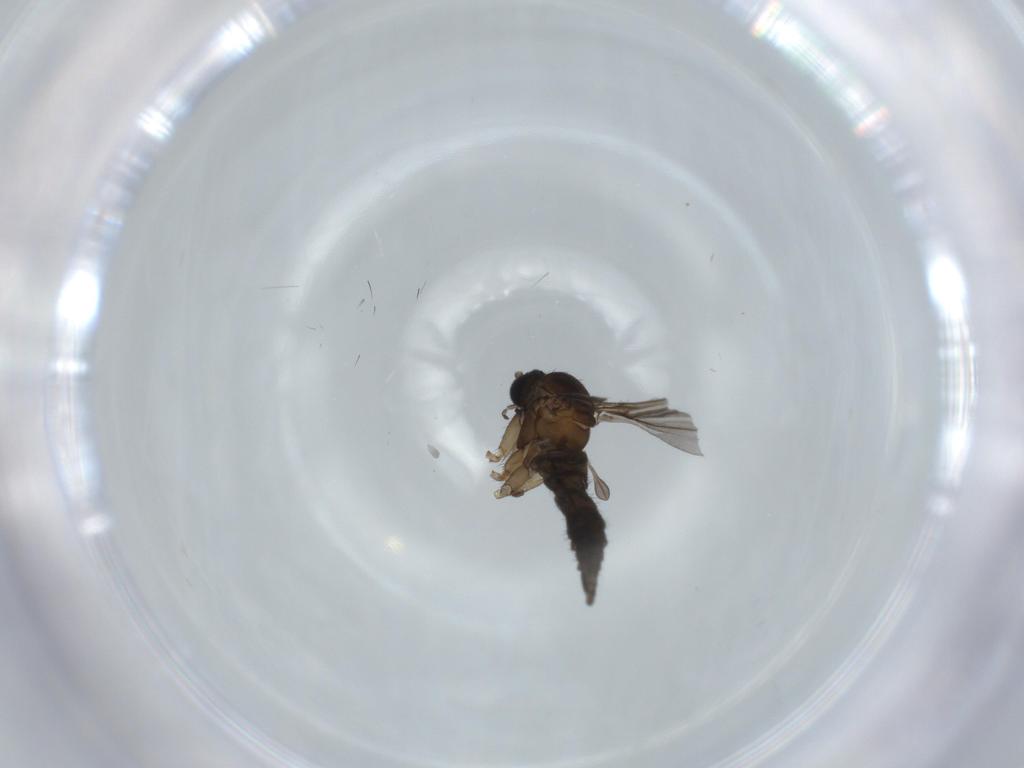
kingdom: Animalia
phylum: Arthropoda
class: Insecta
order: Diptera
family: Sciaridae
